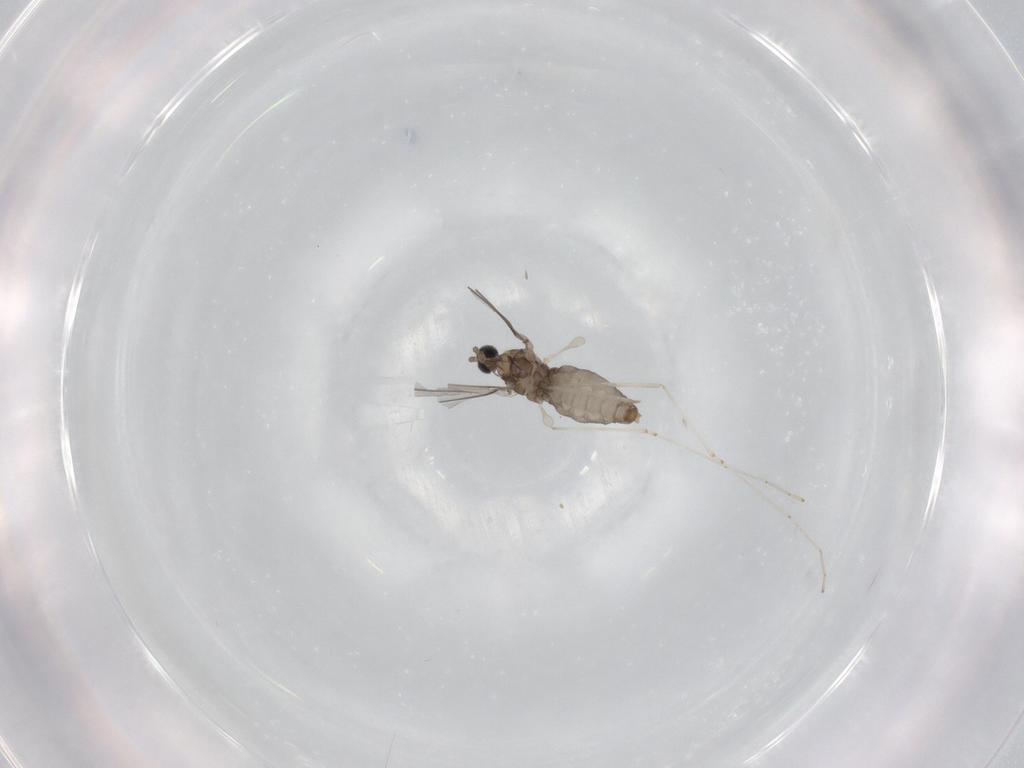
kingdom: Animalia
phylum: Arthropoda
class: Insecta
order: Diptera
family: Cecidomyiidae
